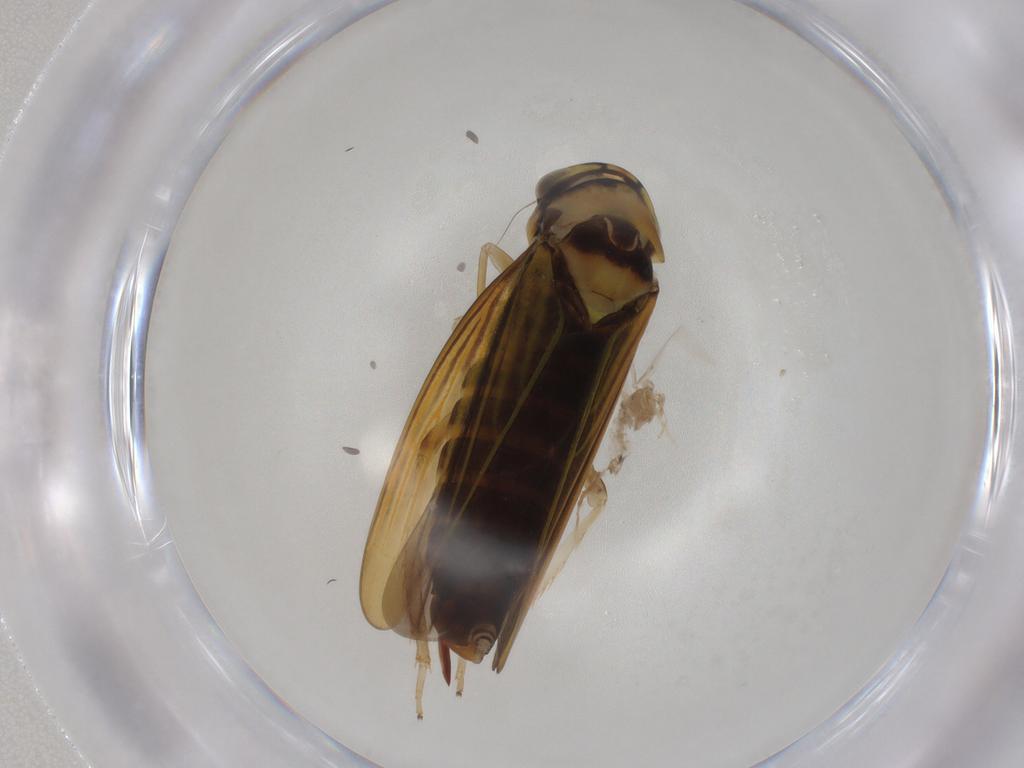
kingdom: Animalia
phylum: Arthropoda
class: Insecta
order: Hemiptera
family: Cicadellidae
